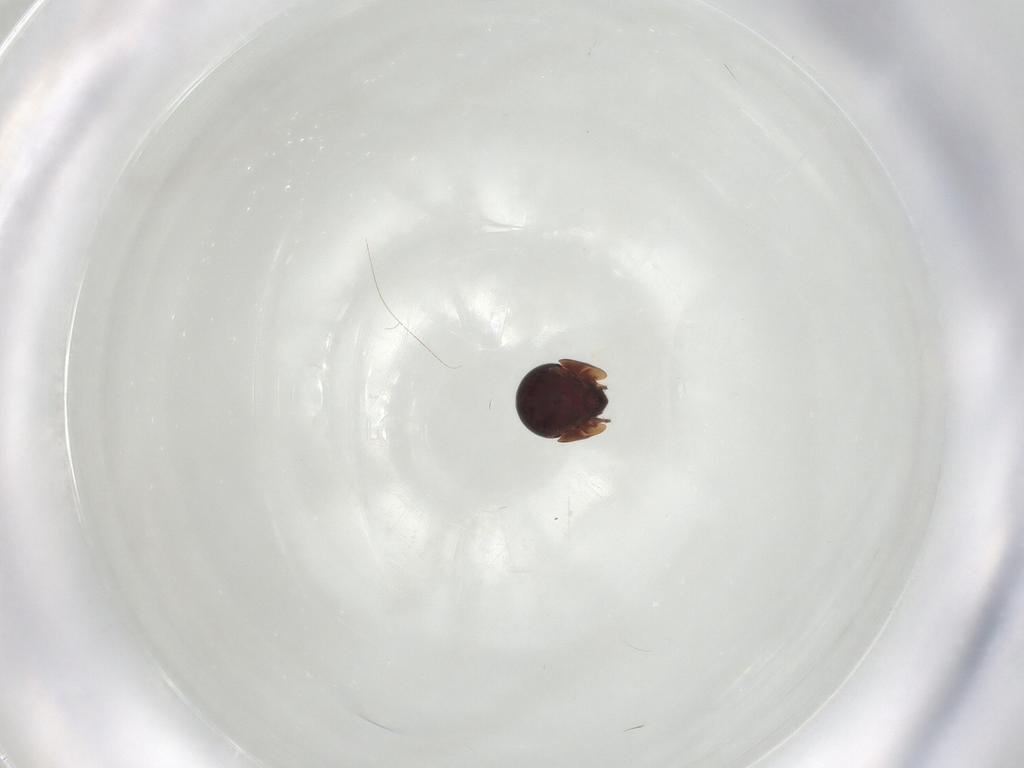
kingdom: Animalia
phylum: Arthropoda
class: Arachnida
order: Sarcoptiformes
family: Galumnidae
